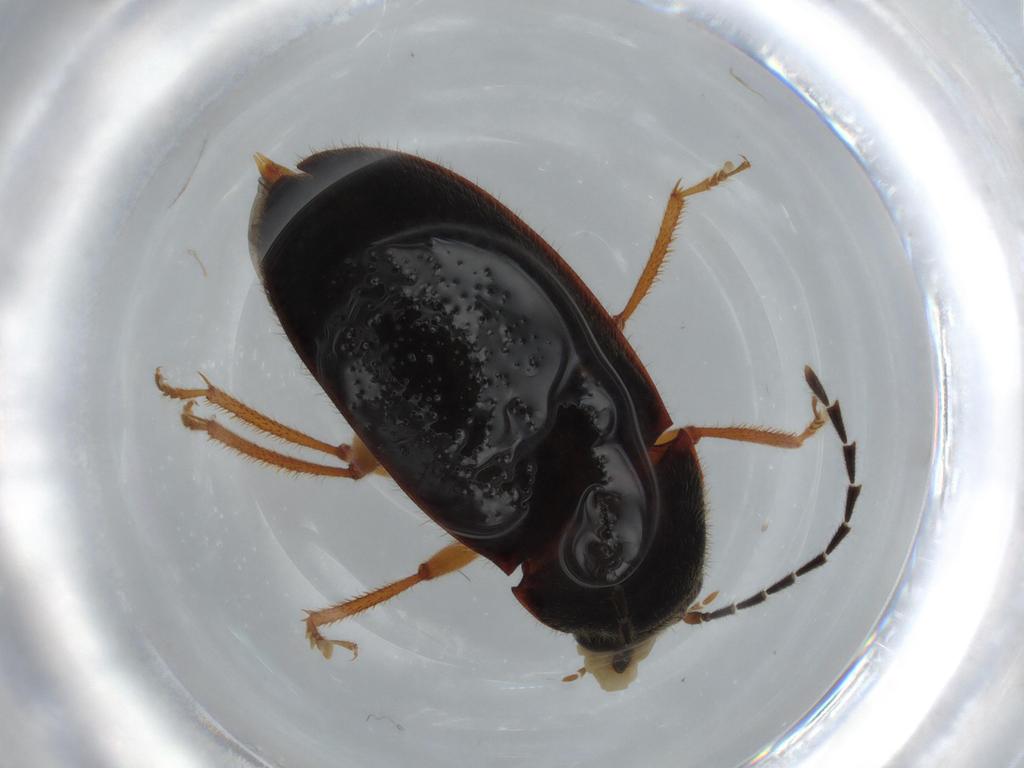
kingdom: Animalia
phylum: Arthropoda
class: Insecta
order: Coleoptera
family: Ptilodactylidae
